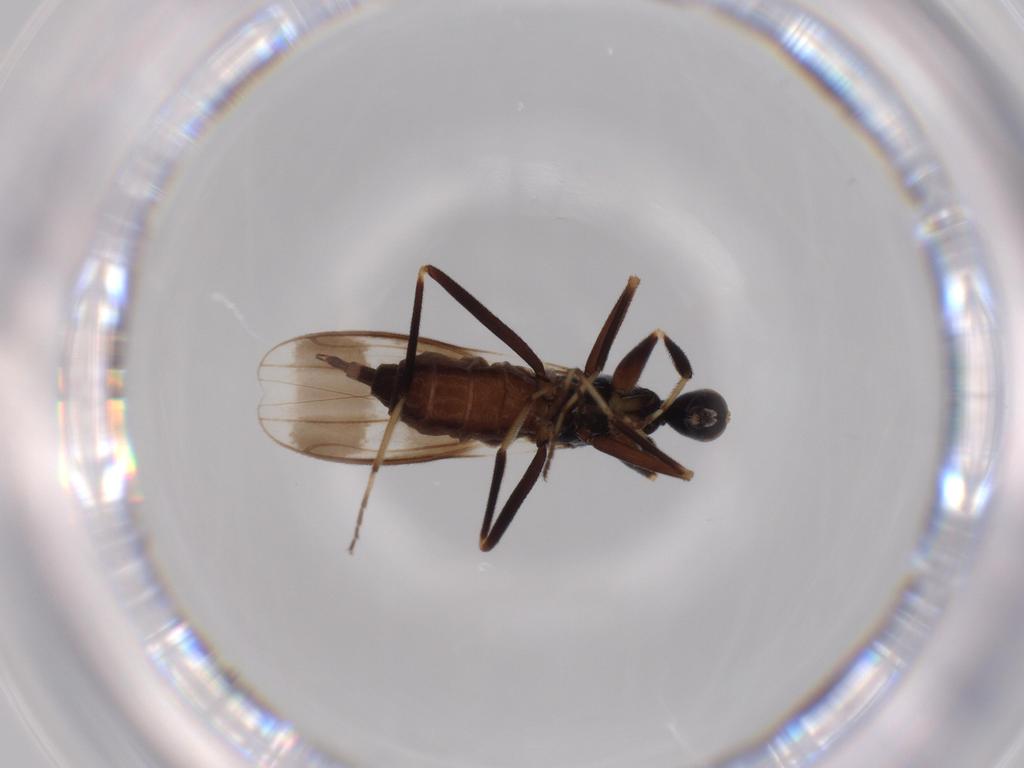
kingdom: Animalia
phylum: Arthropoda
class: Insecta
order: Diptera
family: Hybotidae
